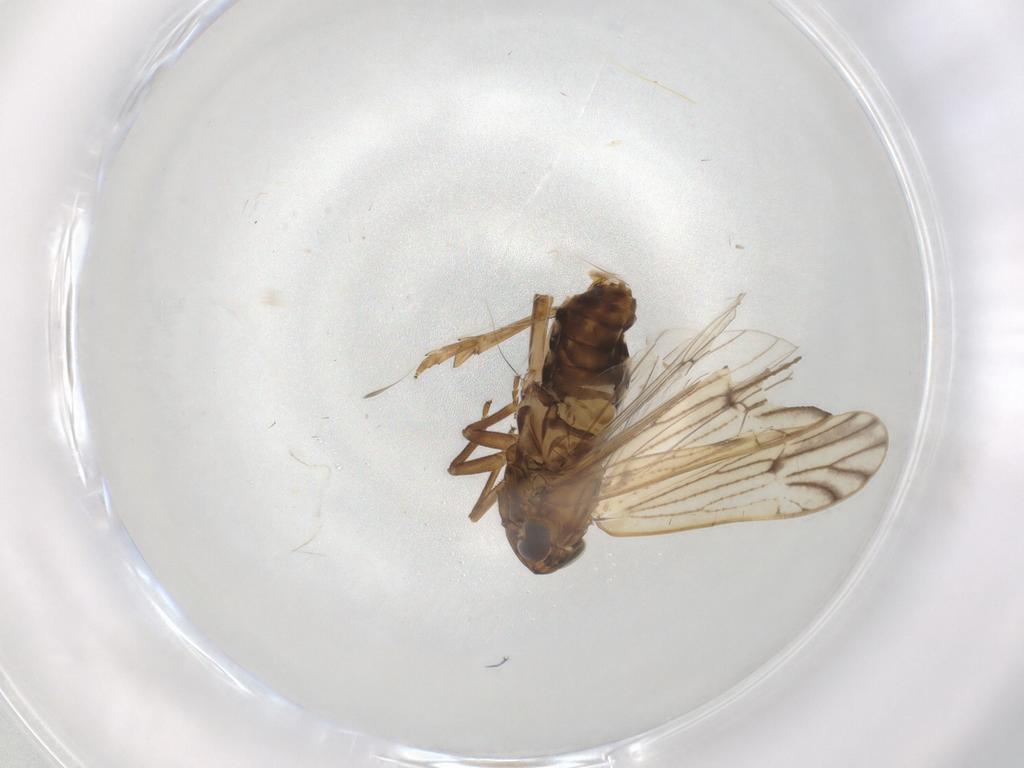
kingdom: Animalia
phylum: Arthropoda
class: Insecta
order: Hemiptera
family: Delphacidae
